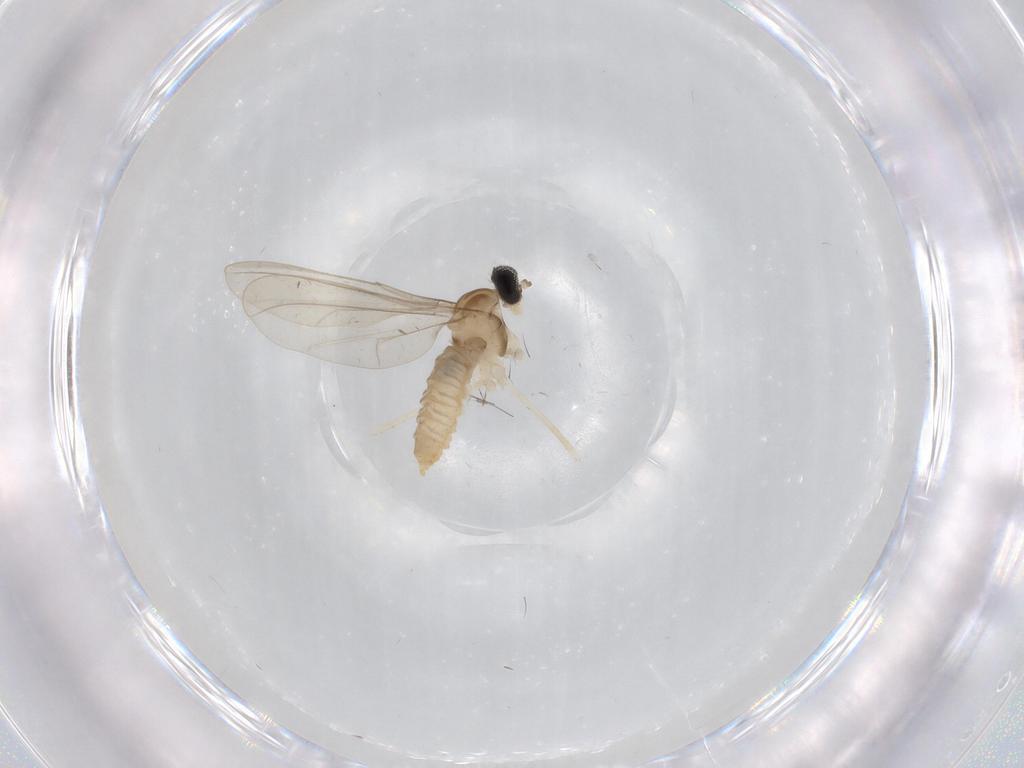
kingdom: Animalia
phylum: Arthropoda
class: Insecta
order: Diptera
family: Cecidomyiidae
